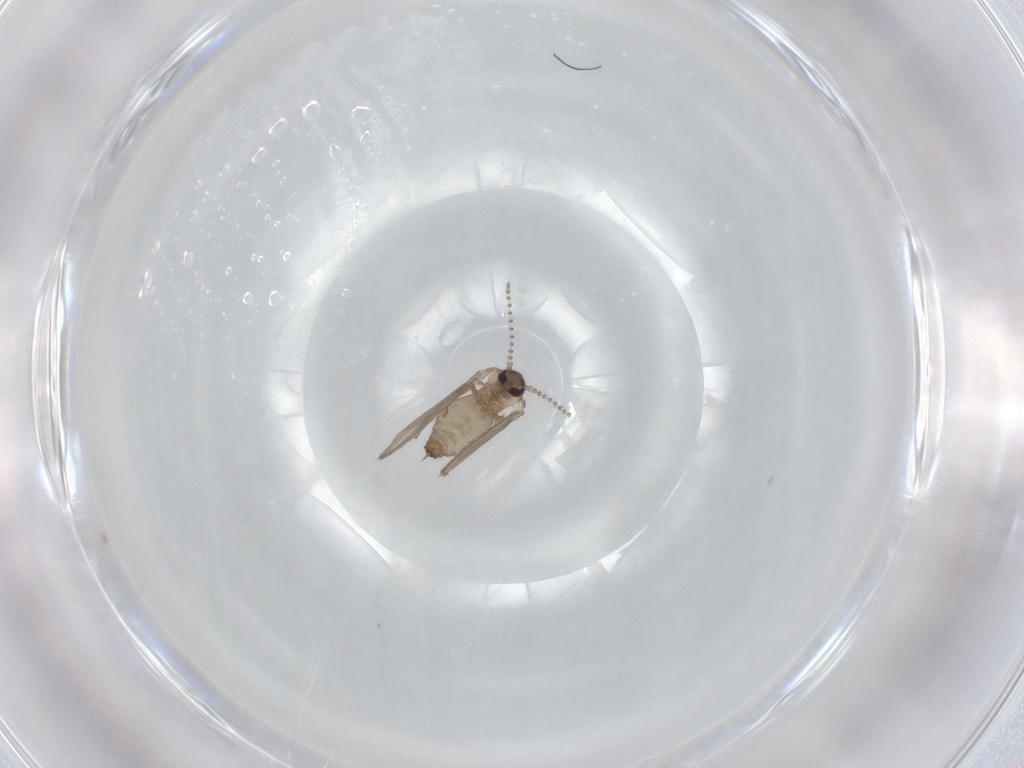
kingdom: Animalia
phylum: Arthropoda
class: Insecta
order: Diptera
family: Psychodidae
